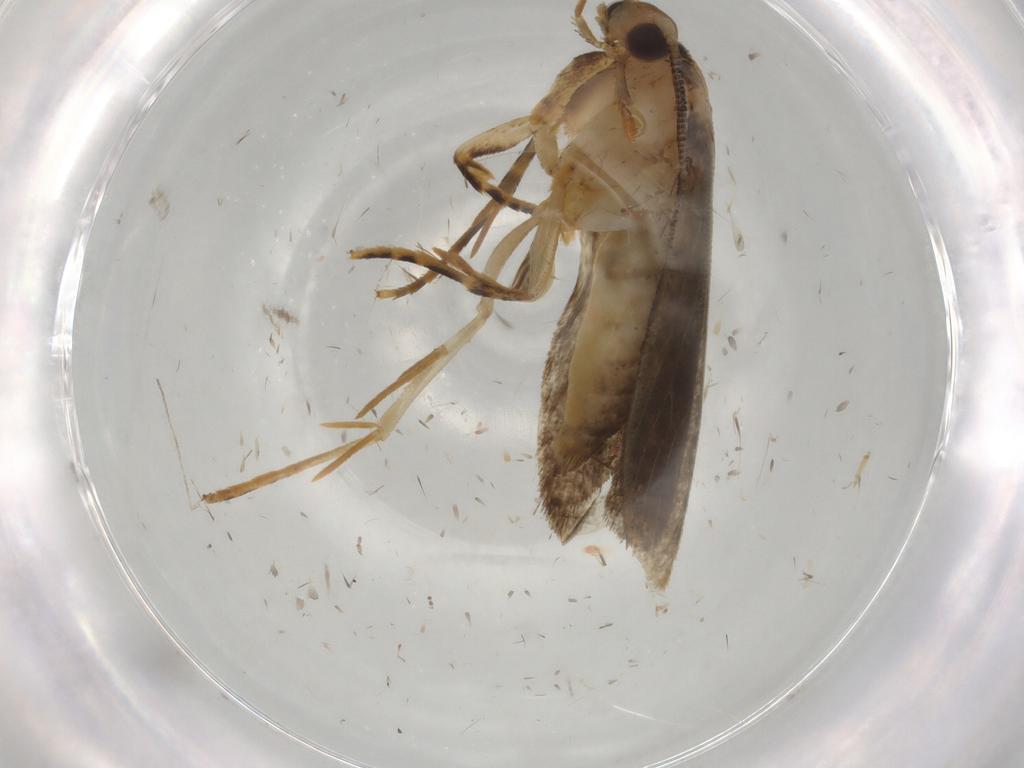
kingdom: Animalia
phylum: Arthropoda
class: Insecta
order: Lepidoptera
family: Tineidae
